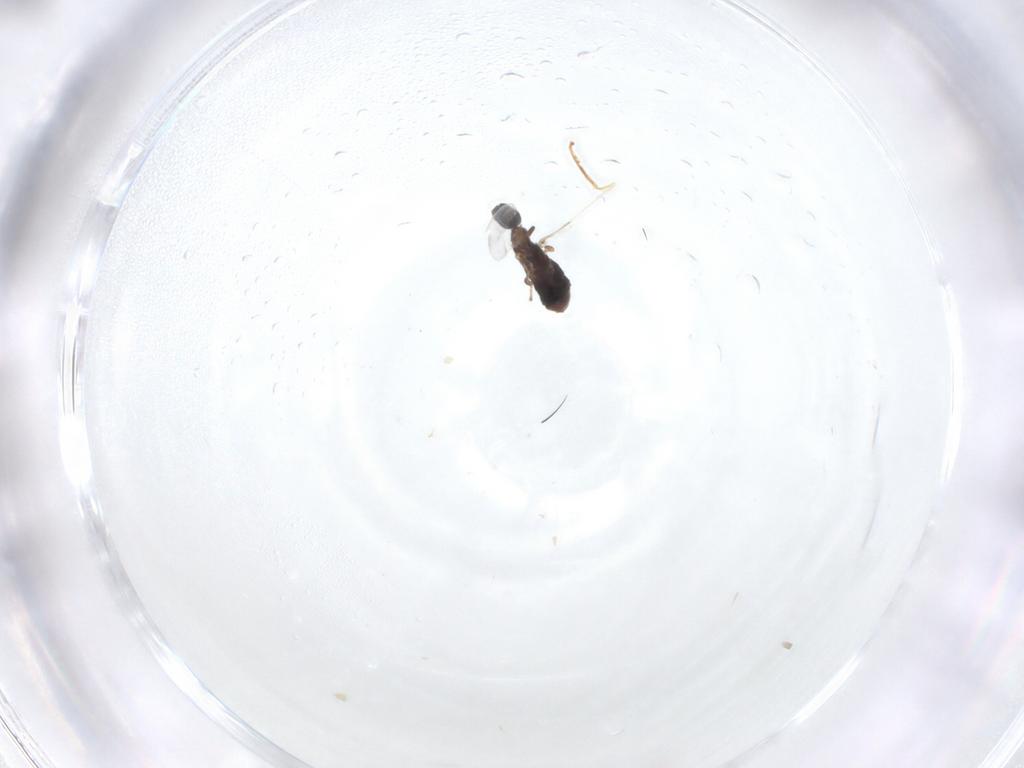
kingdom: Animalia
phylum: Arthropoda
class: Insecta
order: Diptera
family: Scatopsidae
